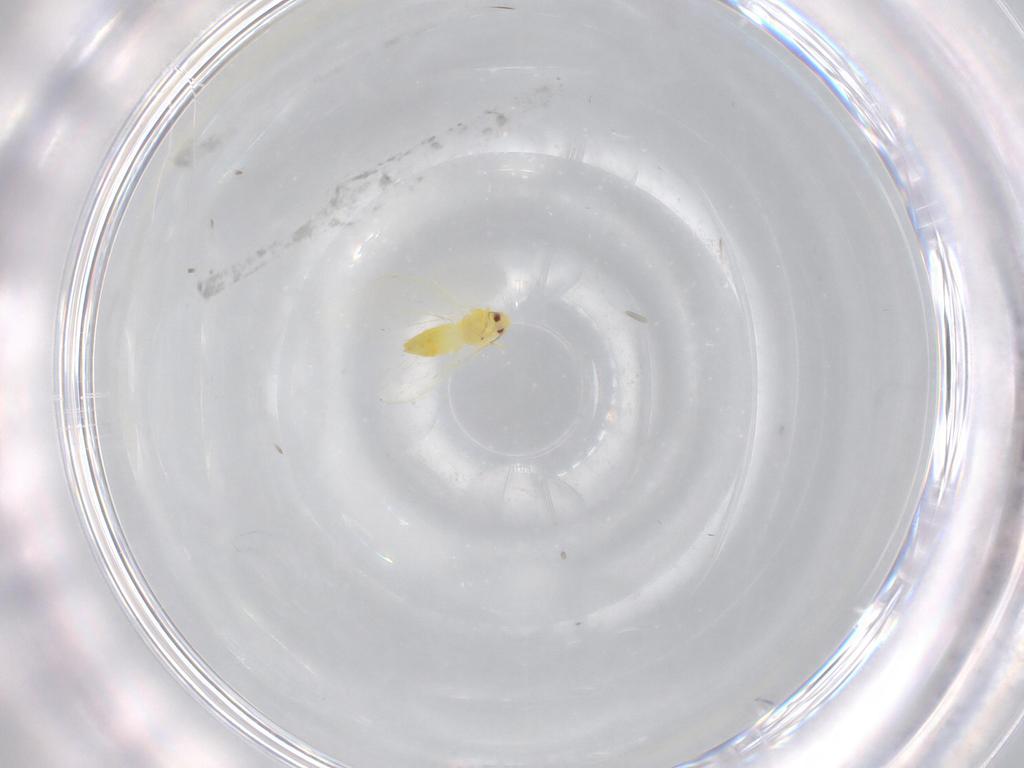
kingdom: Animalia
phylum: Arthropoda
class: Insecta
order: Hemiptera
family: Aleyrodidae
